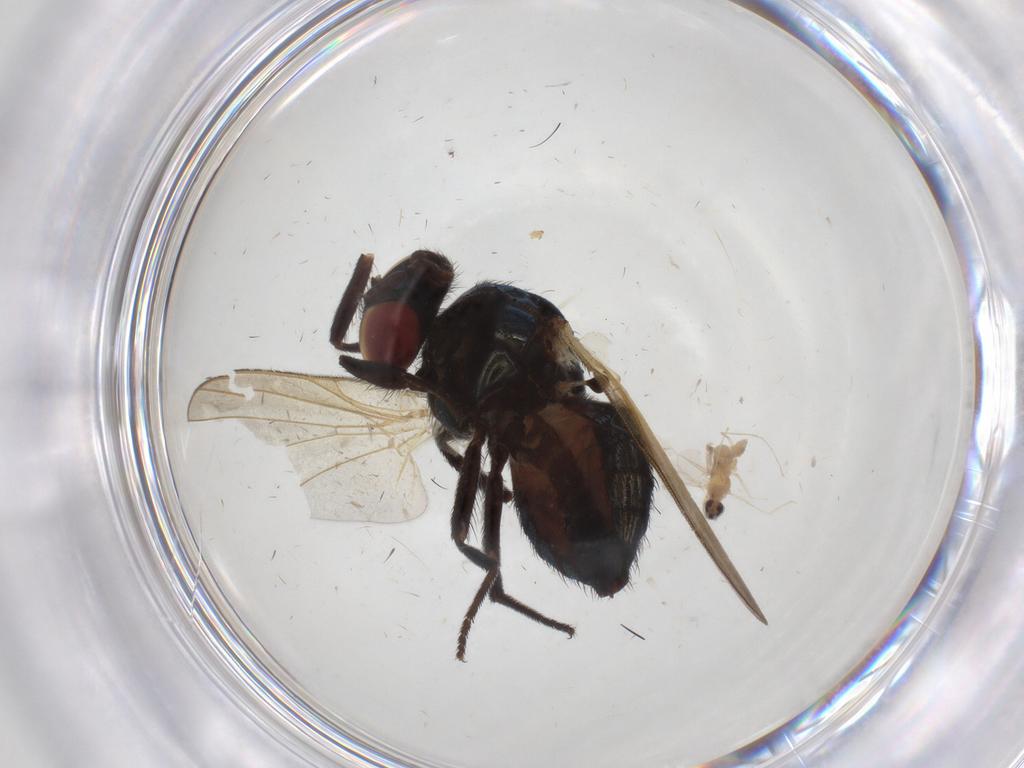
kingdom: Animalia
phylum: Arthropoda
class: Insecta
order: Diptera
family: Cecidomyiidae
